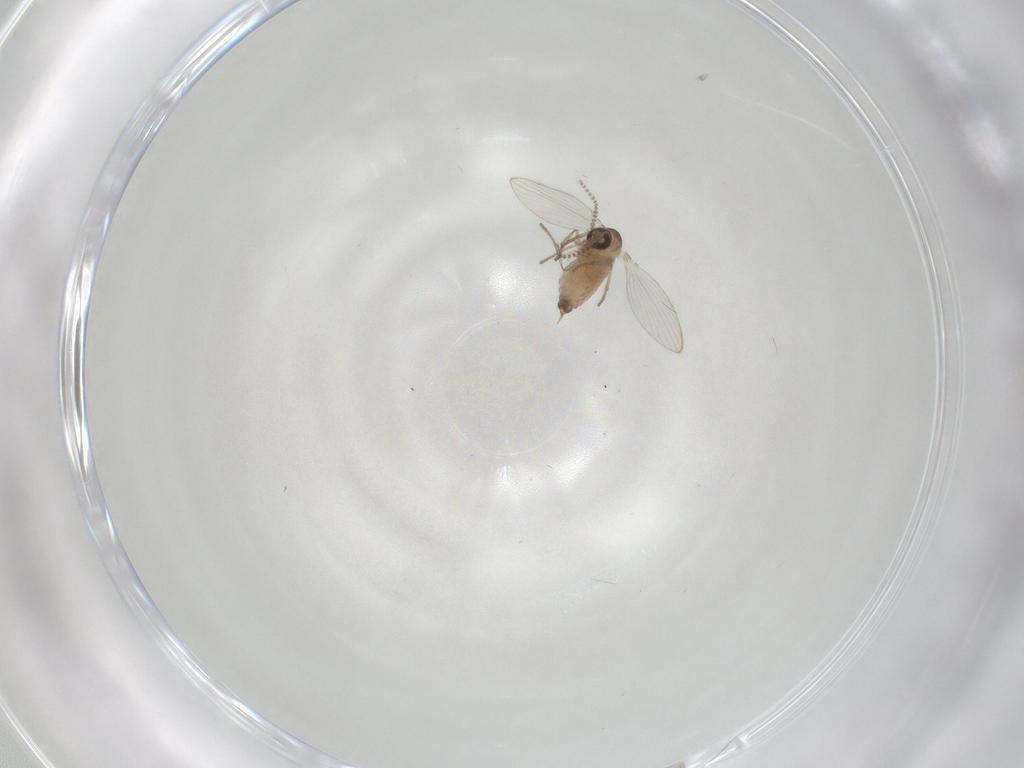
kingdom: Animalia
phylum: Arthropoda
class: Insecta
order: Diptera
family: Psychodidae
